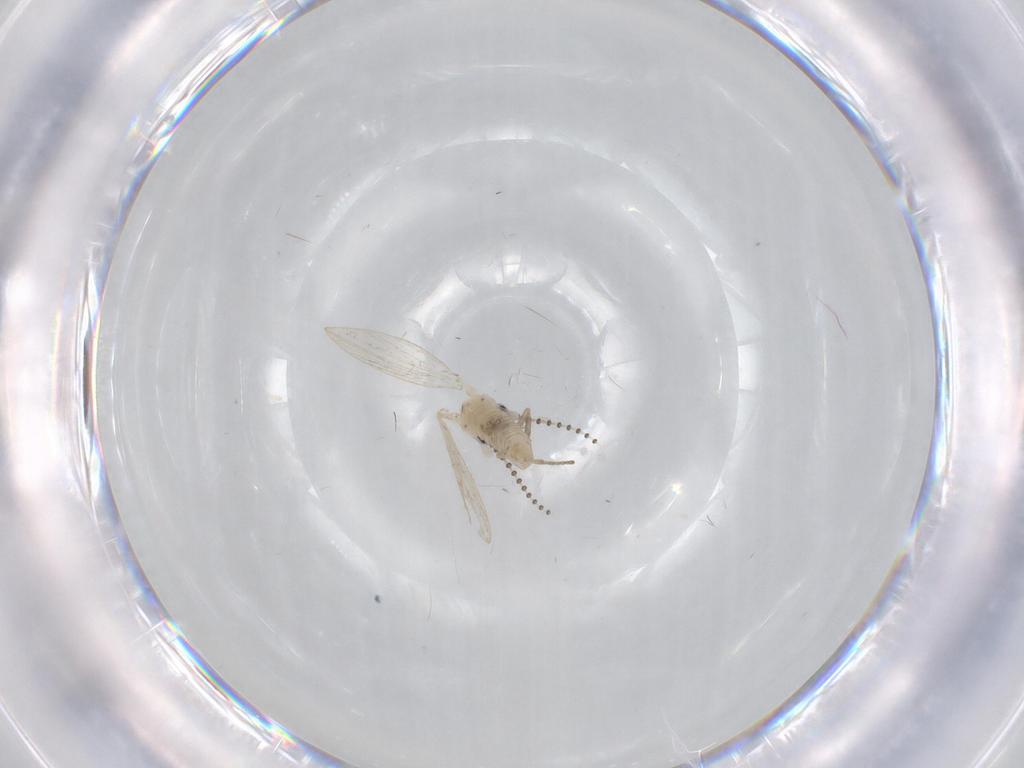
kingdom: Animalia
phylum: Arthropoda
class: Insecta
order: Diptera
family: Psychodidae
